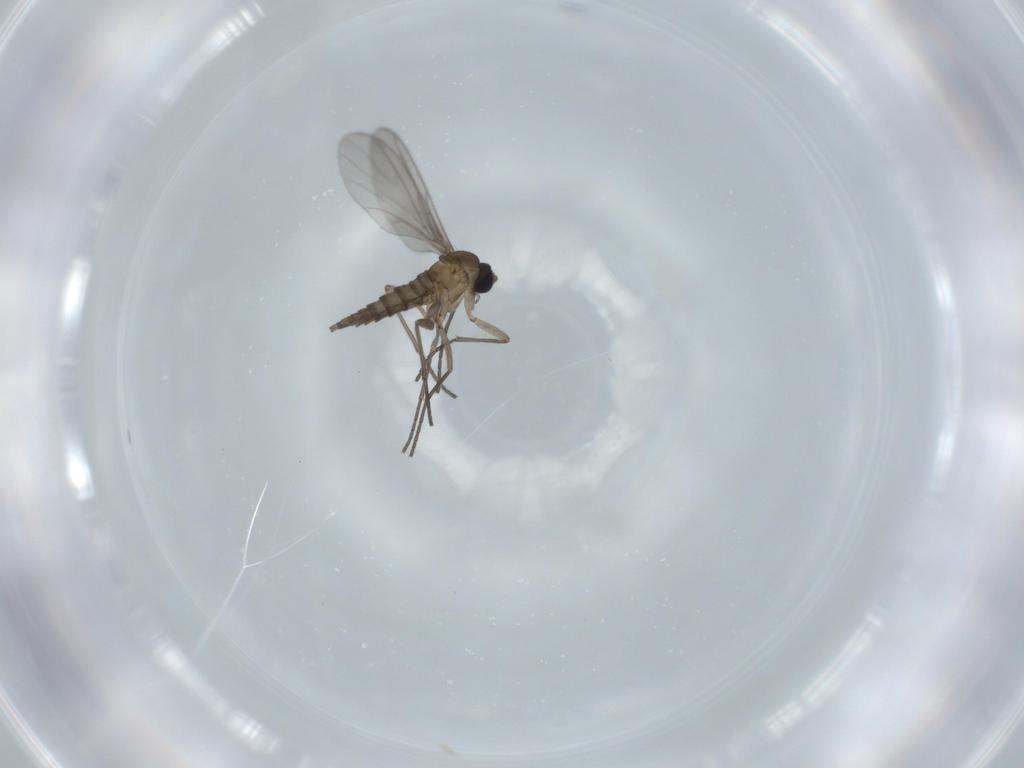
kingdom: Animalia
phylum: Arthropoda
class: Insecta
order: Diptera
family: Sciaridae
